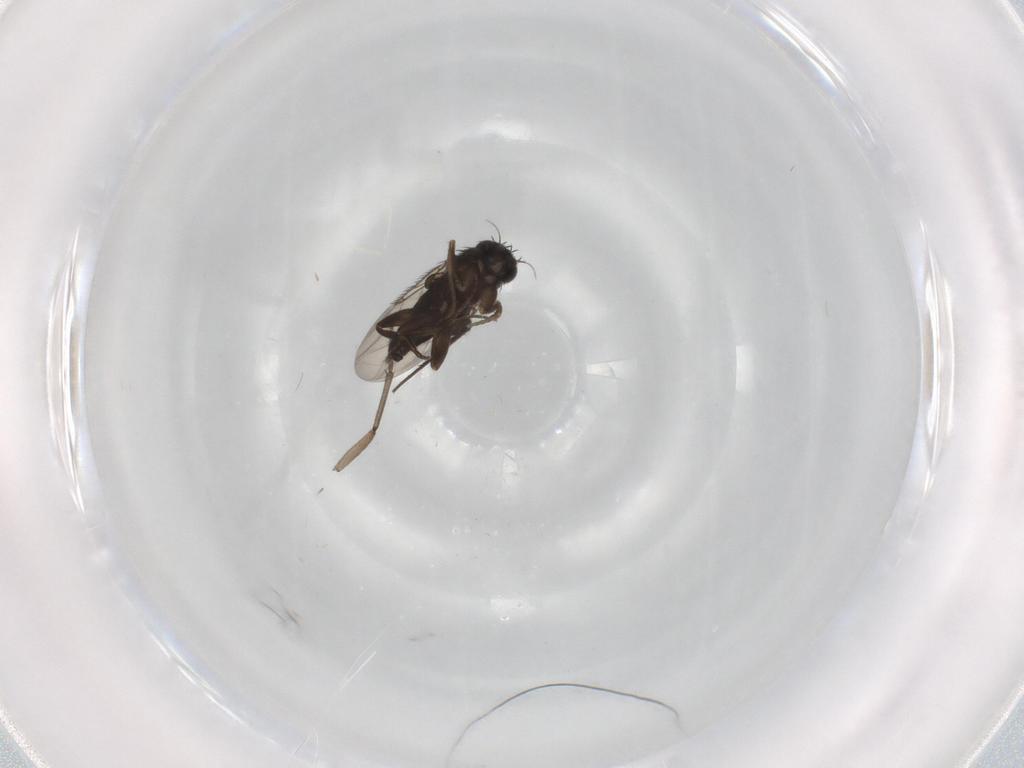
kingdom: Animalia
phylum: Arthropoda
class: Insecta
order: Diptera
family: Sciaridae
